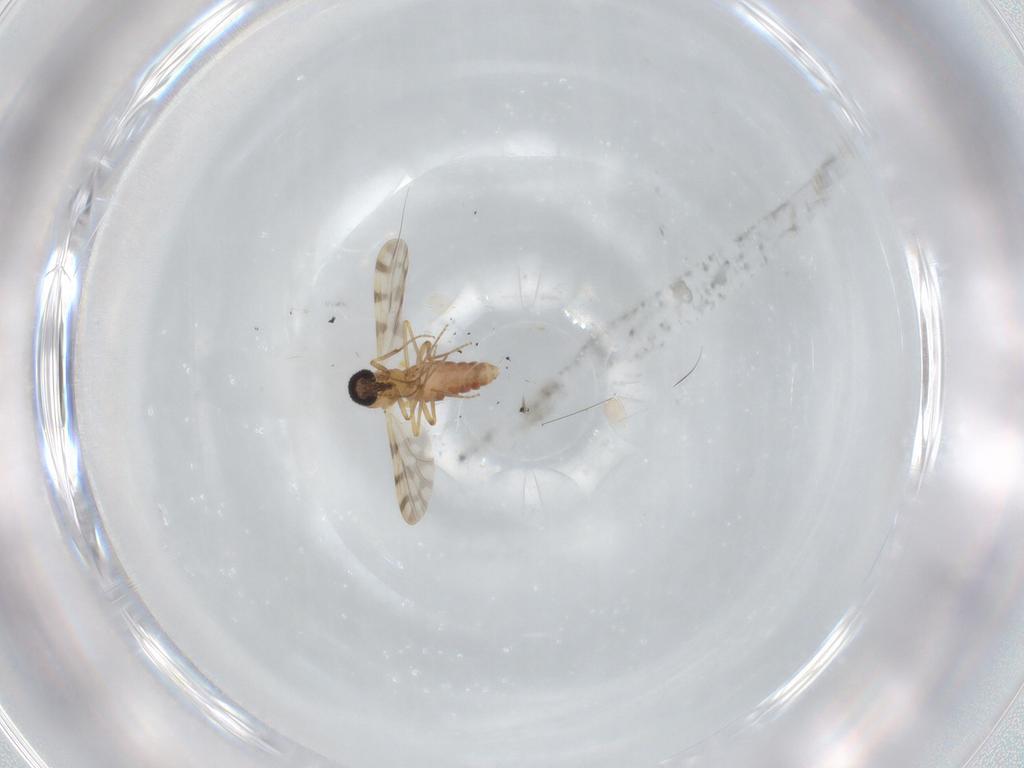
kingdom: Animalia
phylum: Arthropoda
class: Insecta
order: Diptera
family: Ceratopogonidae
